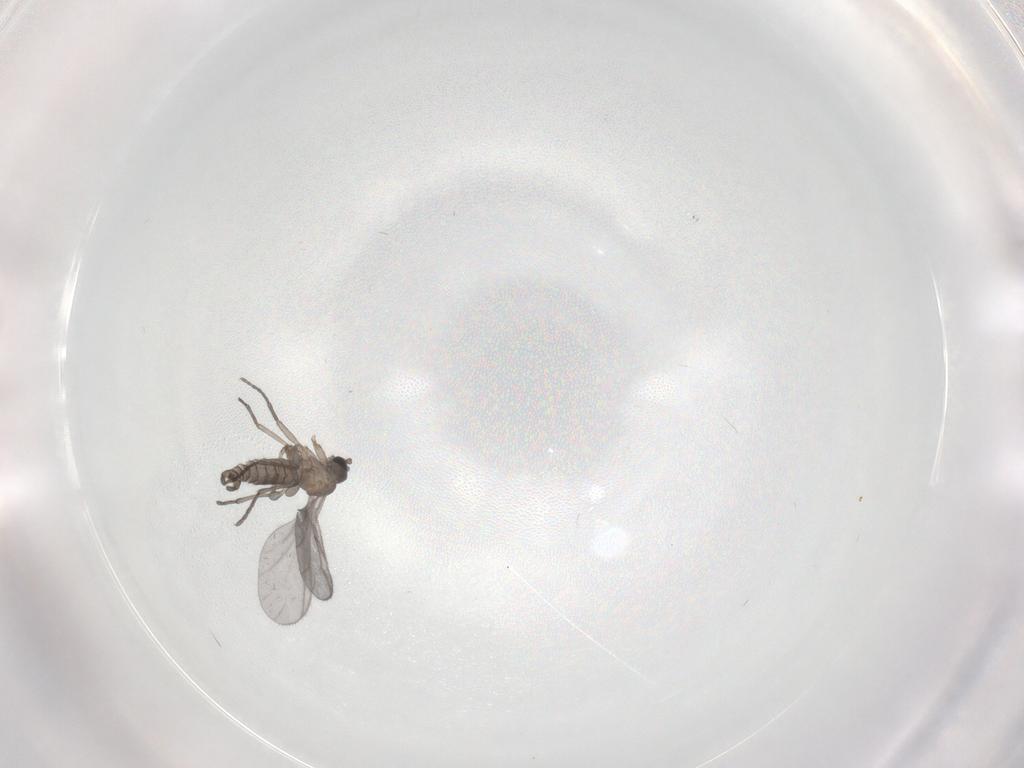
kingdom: Animalia
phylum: Arthropoda
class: Insecta
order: Diptera
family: Sciaridae
